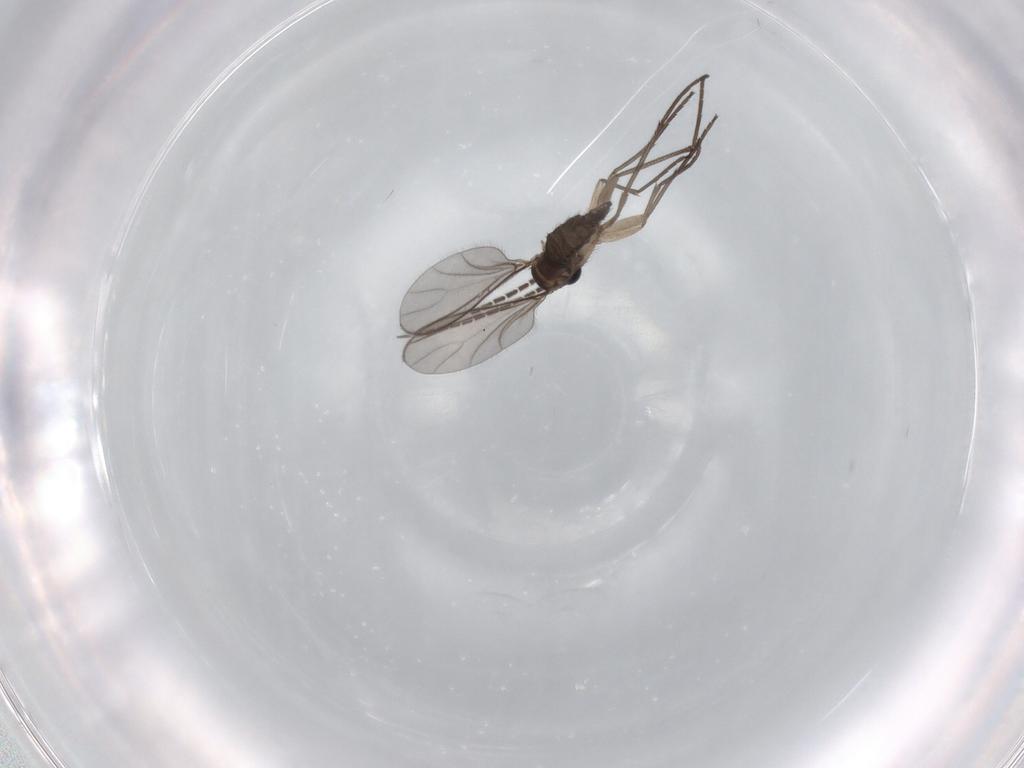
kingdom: Animalia
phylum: Arthropoda
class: Insecta
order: Diptera
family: Sciaridae
